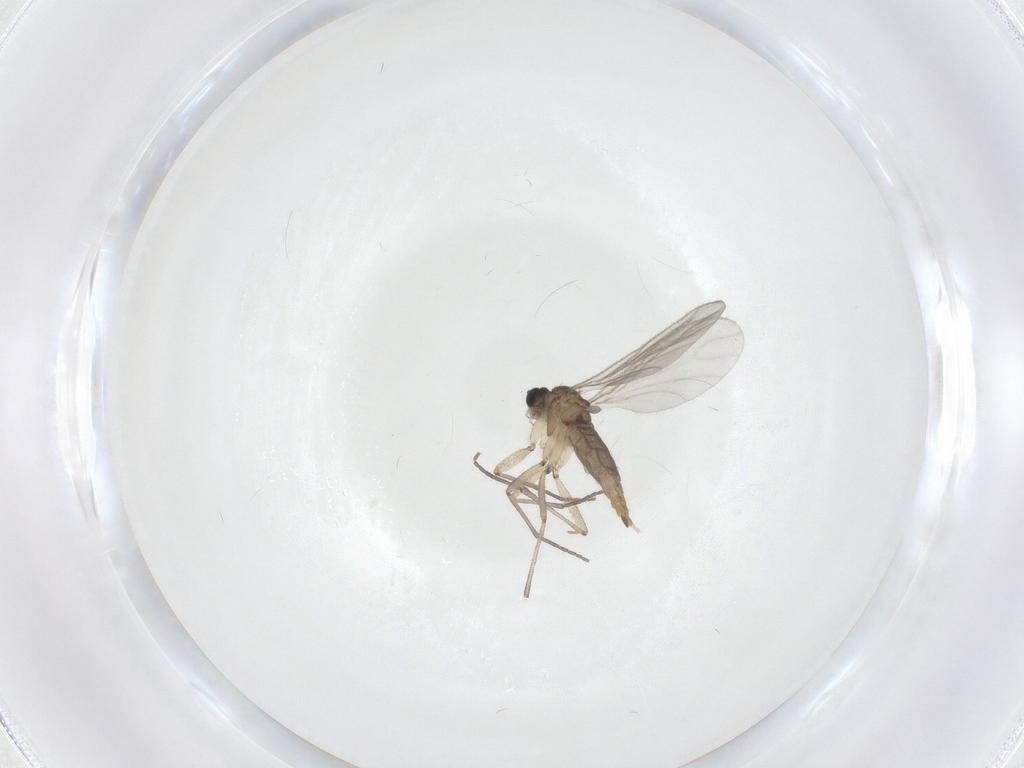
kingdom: Animalia
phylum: Arthropoda
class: Insecta
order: Diptera
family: Sciaridae
